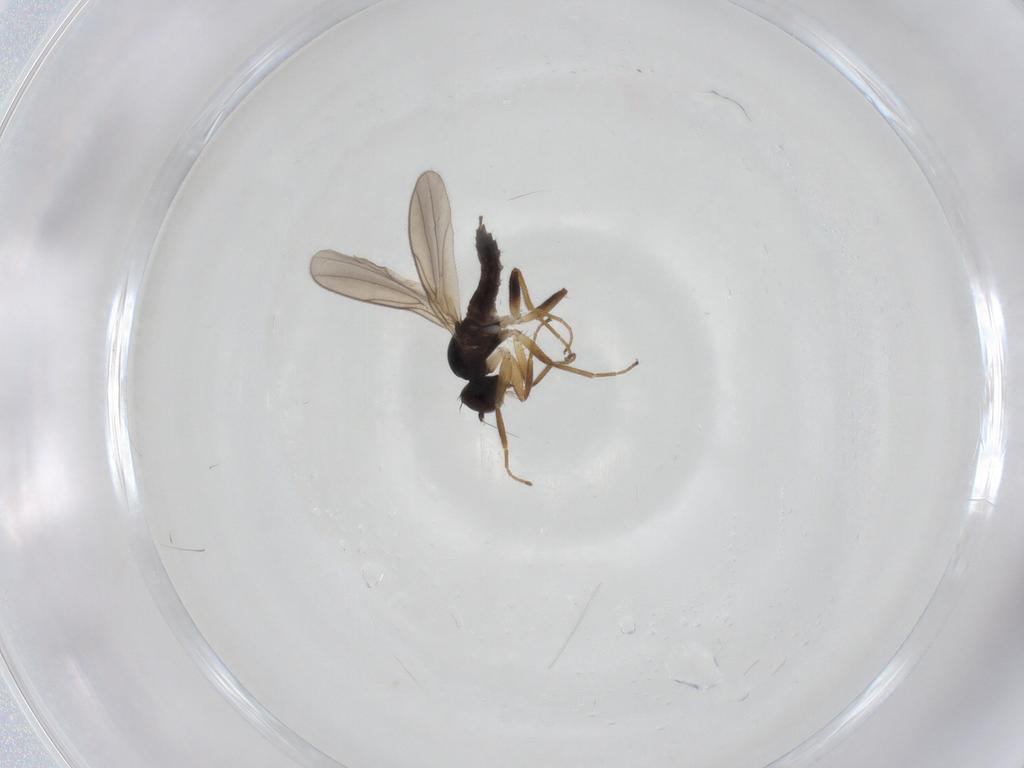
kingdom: Animalia
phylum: Arthropoda
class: Insecta
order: Diptera
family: Hybotidae
